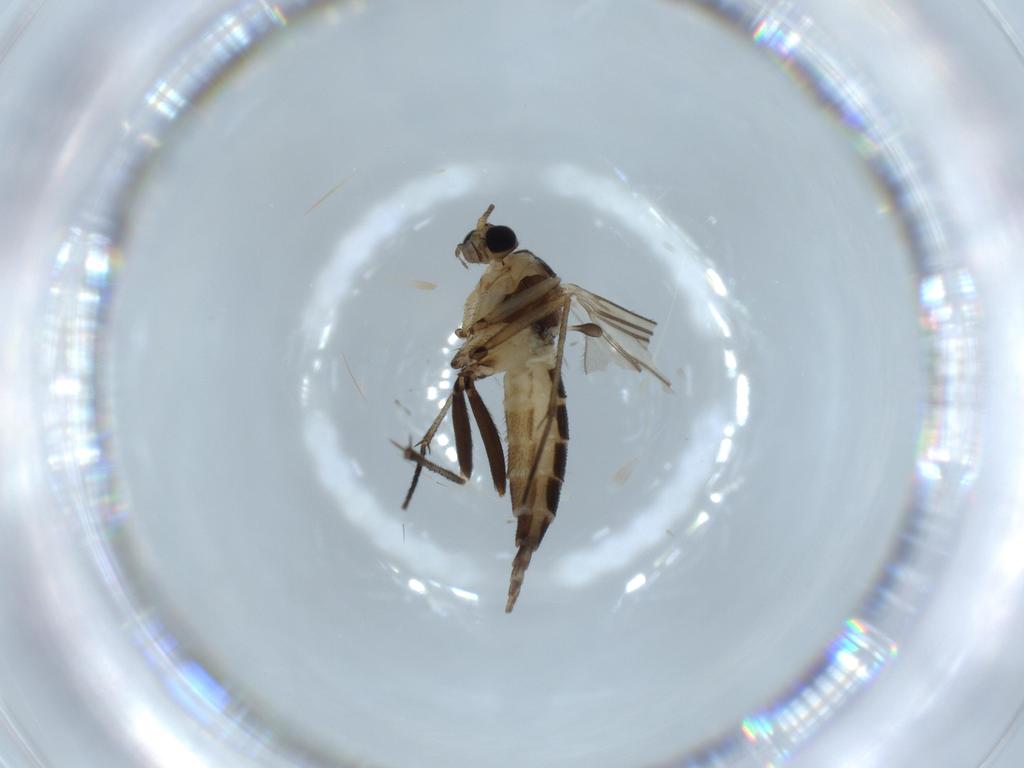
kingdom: Animalia
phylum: Arthropoda
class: Insecta
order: Diptera
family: Sciaridae
